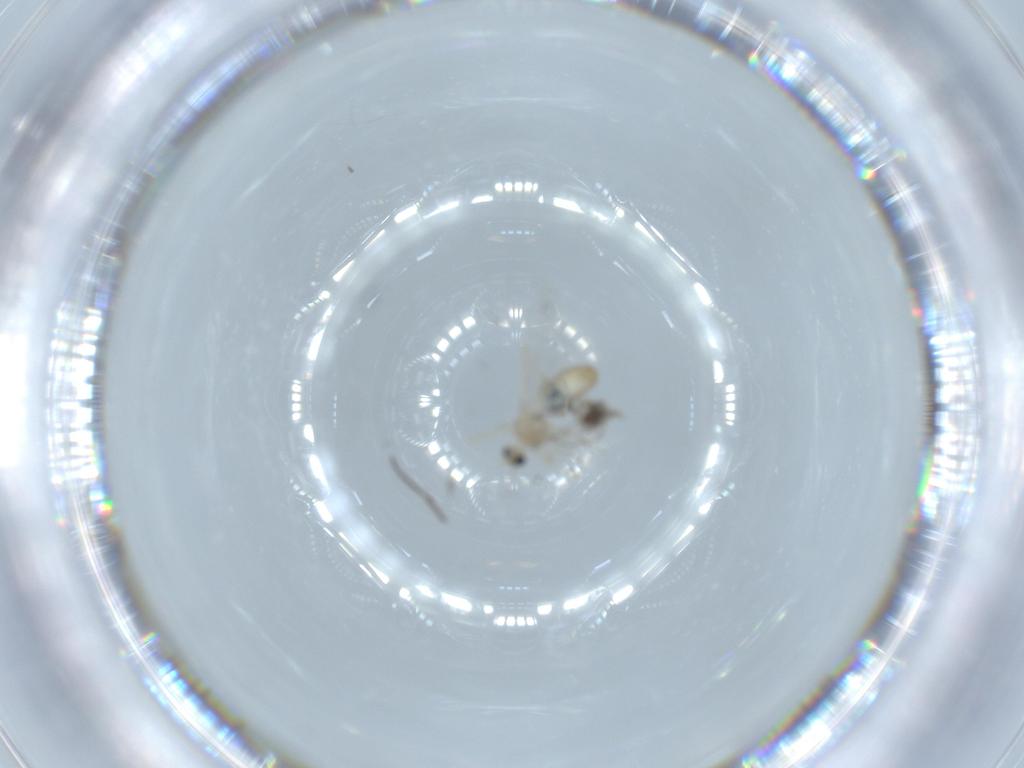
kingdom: Animalia
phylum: Arthropoda
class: Insecta
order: Diptera
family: Cecidomyiidae
